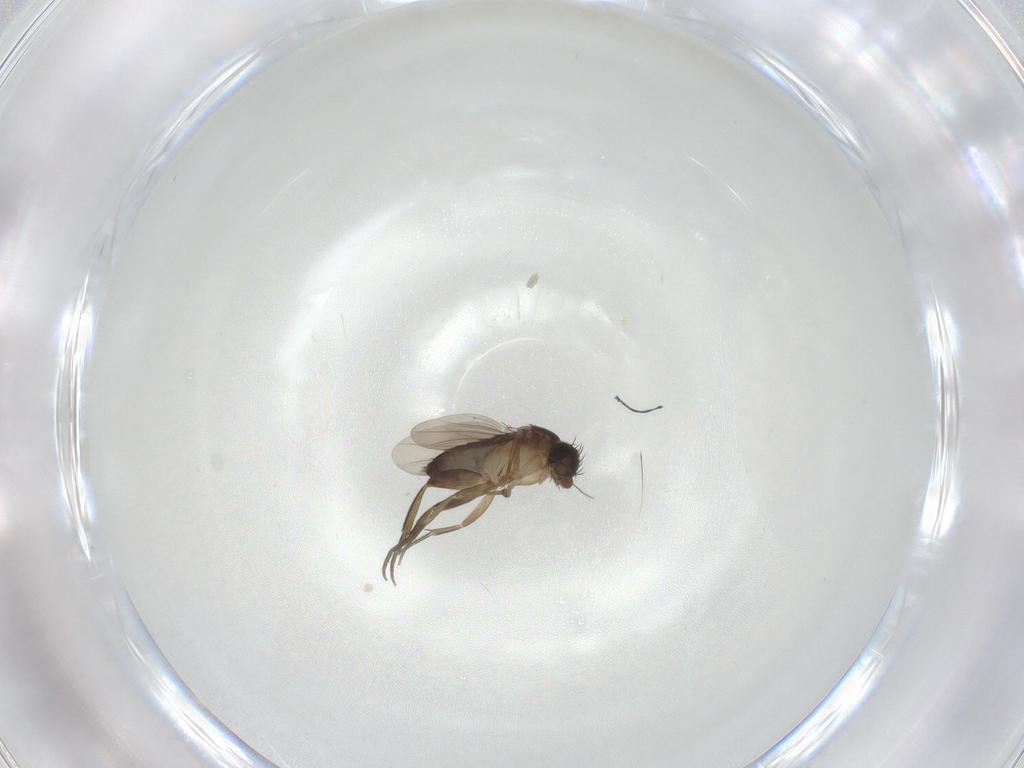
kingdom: Animalia
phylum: Arthropoda
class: Insecta
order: Diptera
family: Phoridae
